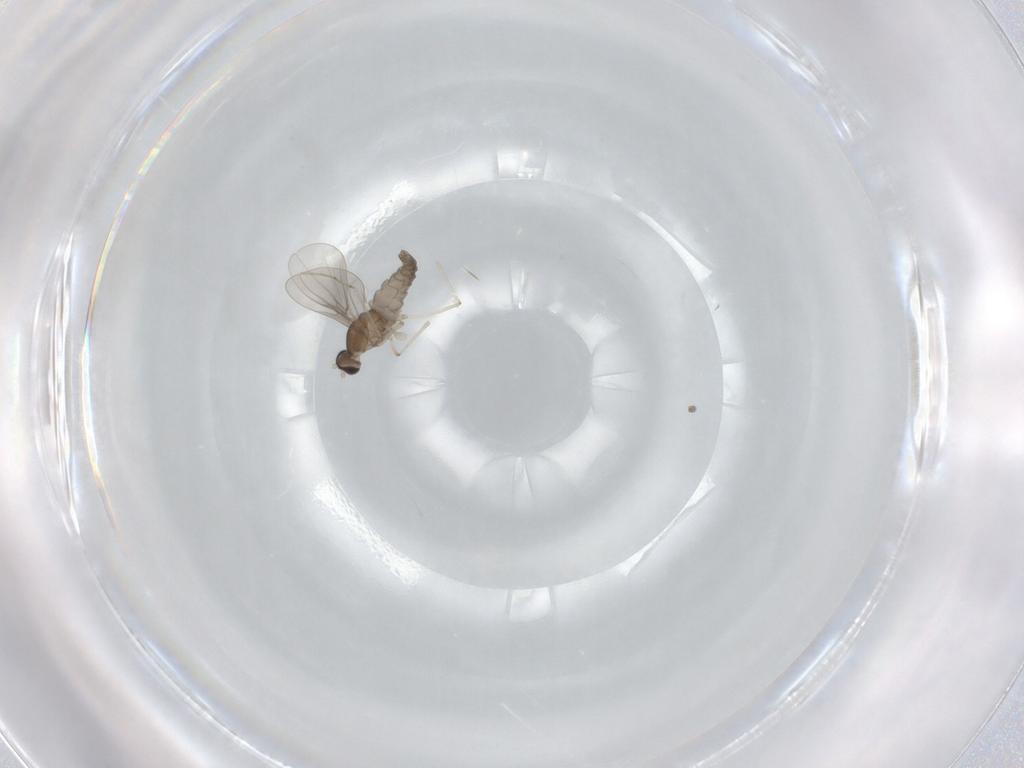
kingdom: Animalia
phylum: Arthropoda
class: Insecta
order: Diptera
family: Cecidomyiidae
